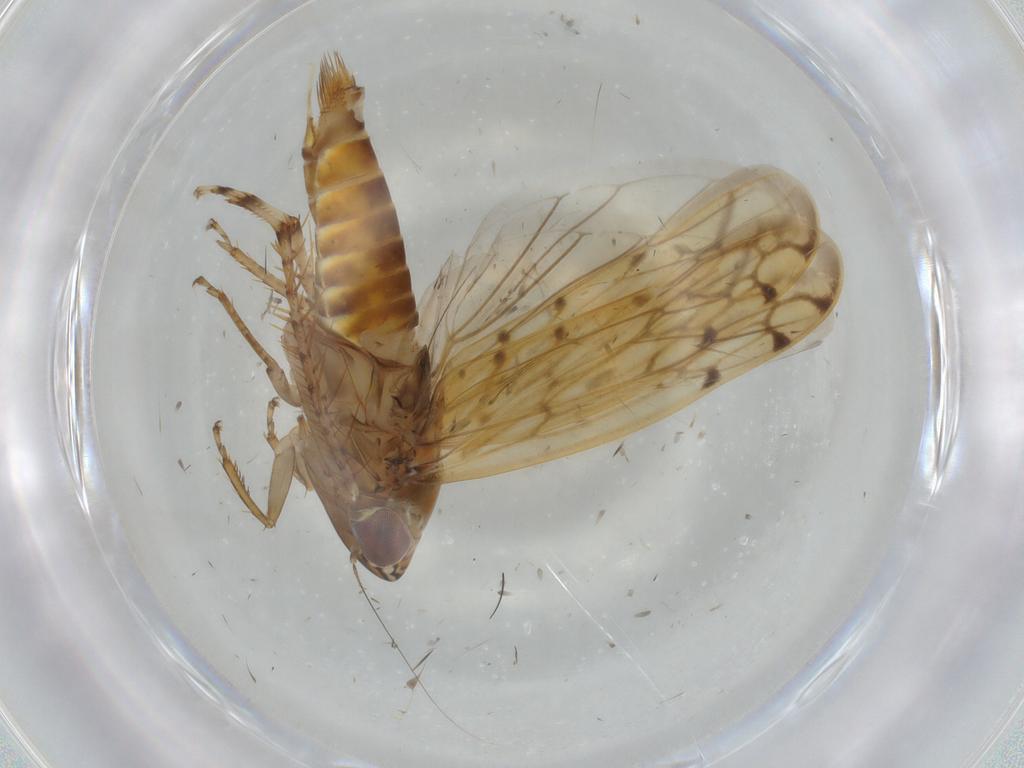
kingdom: Animalia
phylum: Arthropoda
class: Insecta
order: Hemiptera
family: Cicadellidae
